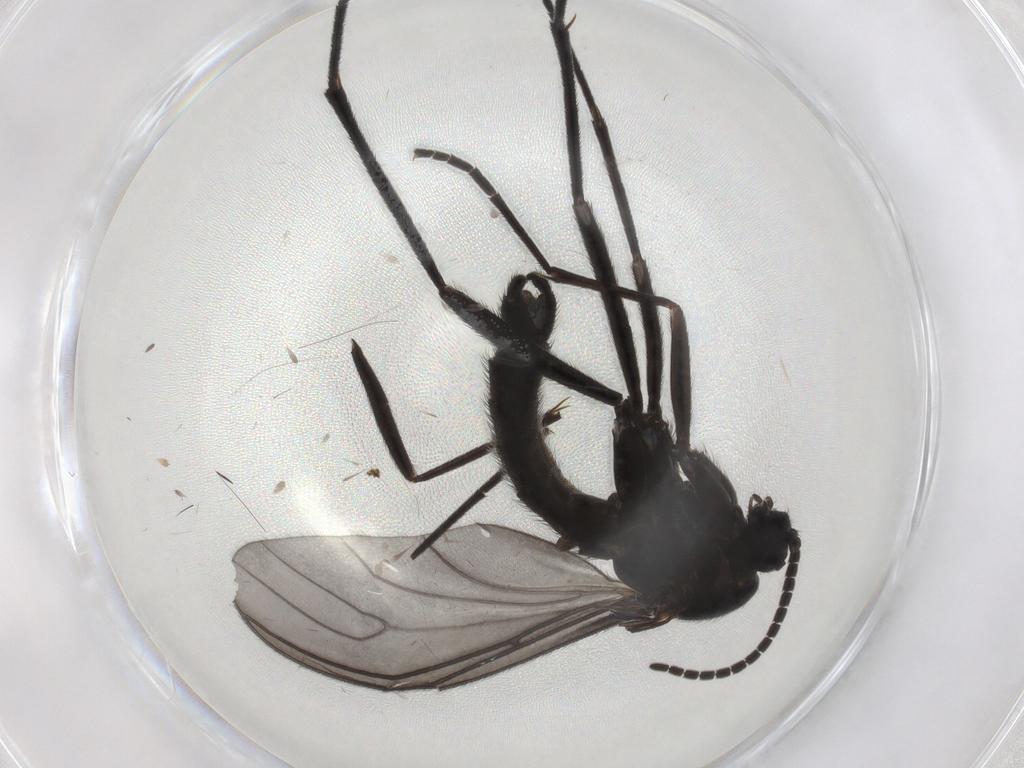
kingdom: Animalia
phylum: Arthropoda
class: Insecta
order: Diptera
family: Sciaridae
